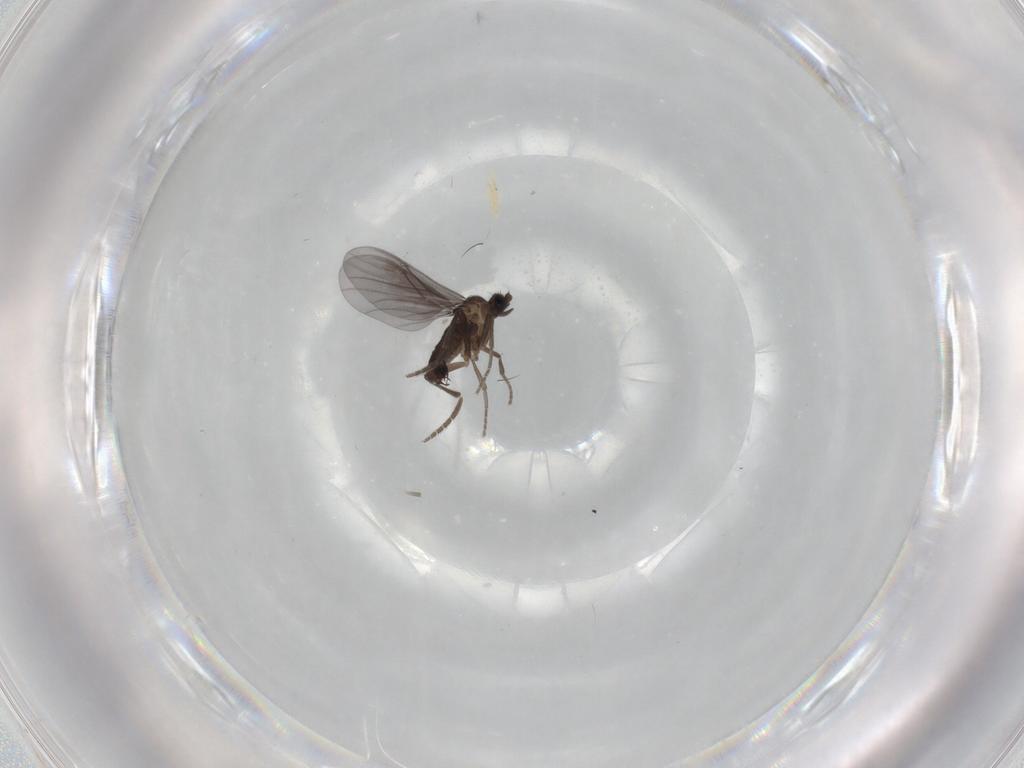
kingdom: Animalia
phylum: Arthropoda
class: Insecta
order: Diptera
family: Phoridae
